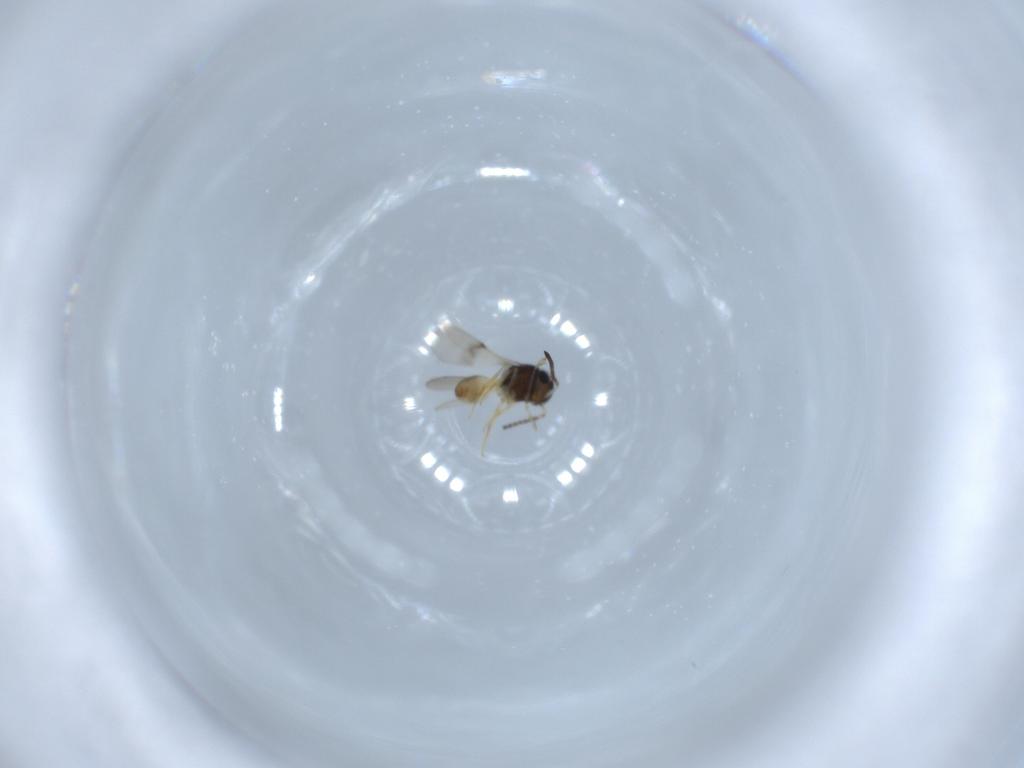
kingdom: Animalia
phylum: Arthropoda
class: Insecta
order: Hymenoptera
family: Scelionidae
